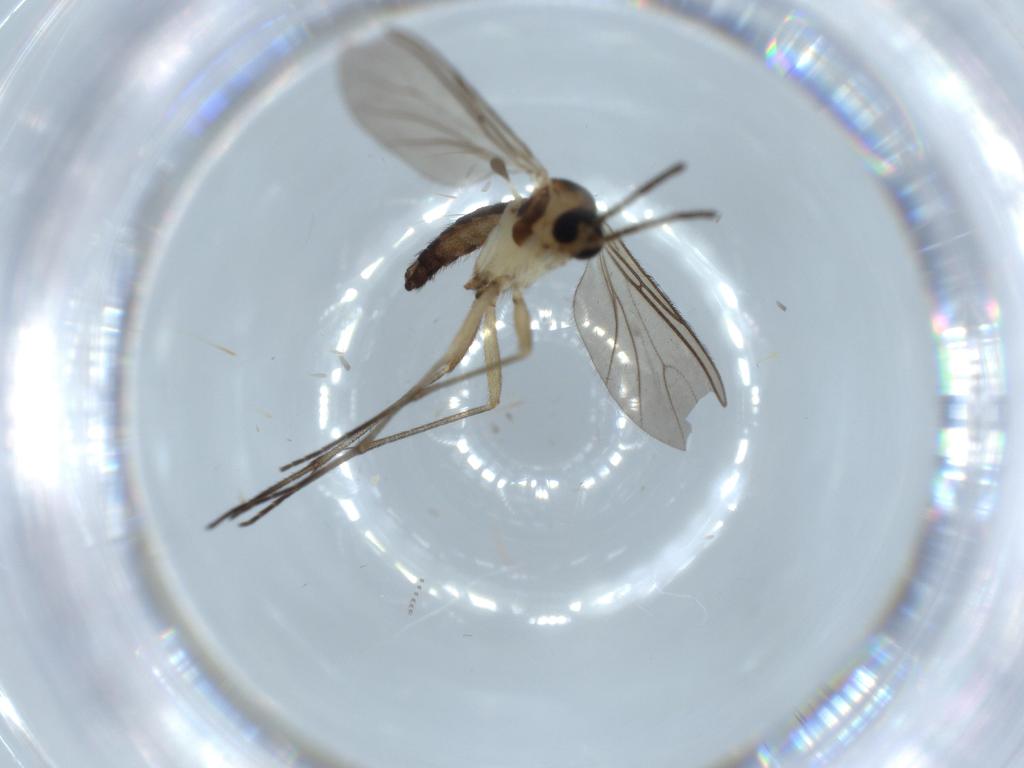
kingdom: Animalia
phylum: Arthropoda
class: Insecta
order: Diptera
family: Sciaridae
